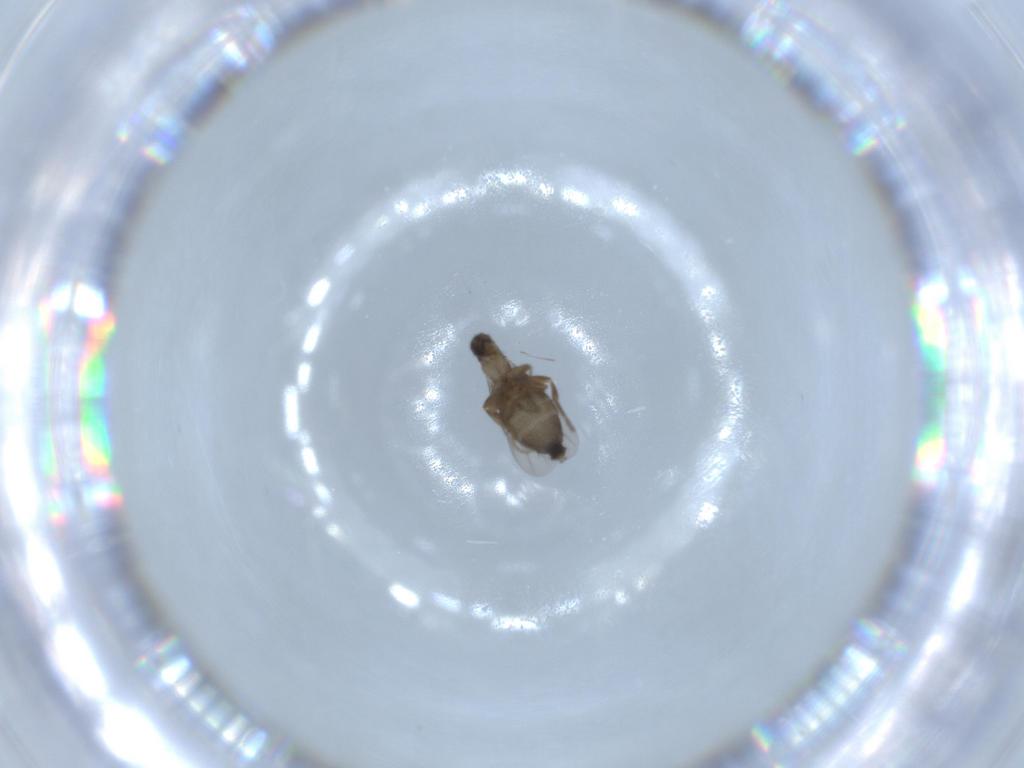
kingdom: Animalia
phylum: Arthropoda
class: Insecta
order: Diptera
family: Phoridae
